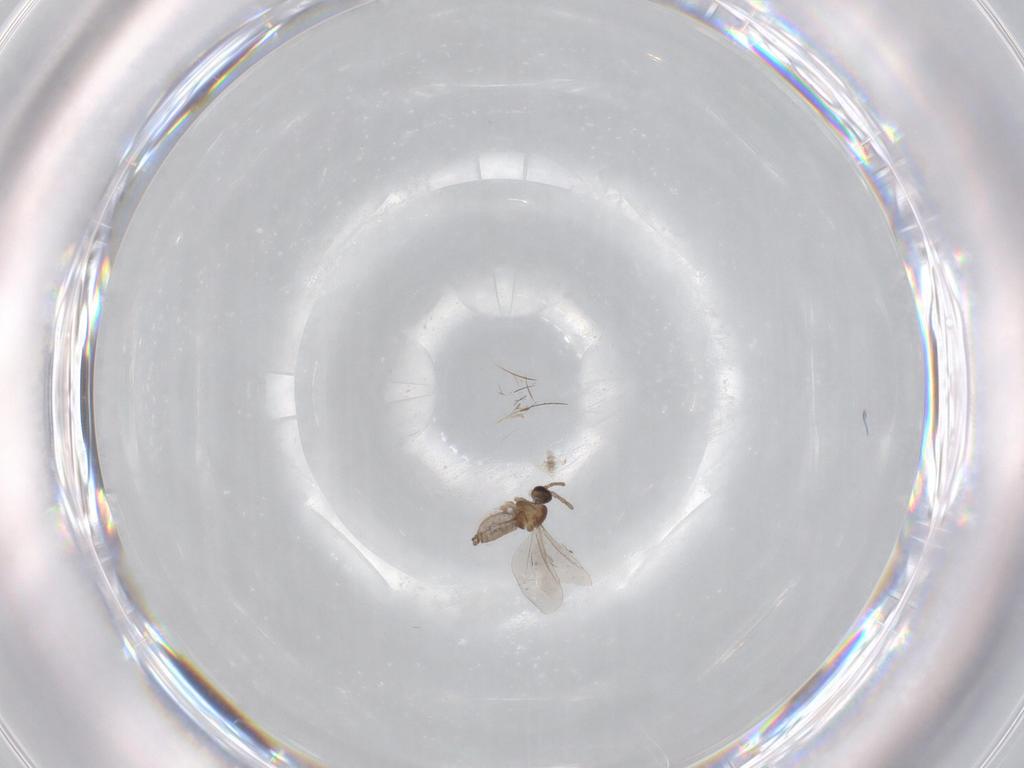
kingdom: Animalia
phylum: Arthropoda
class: Insecta
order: Diptera
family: Cecidomyiidae
